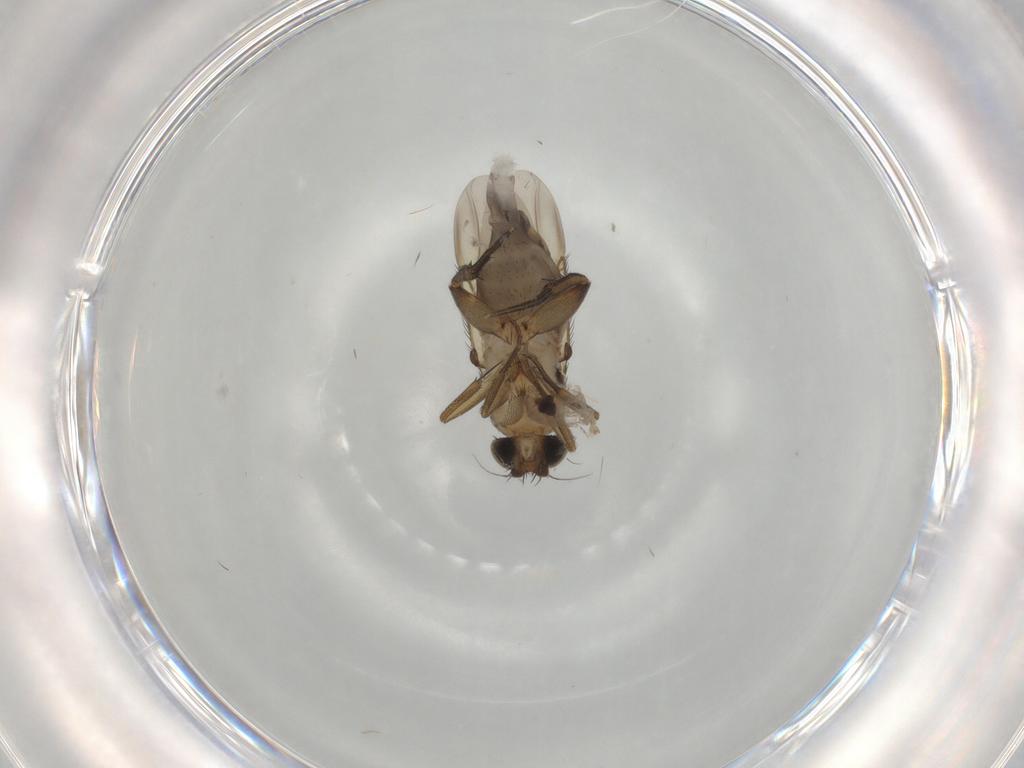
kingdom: Animalia
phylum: Arthropoda
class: Insecta
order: Diptera
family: Phoridae
